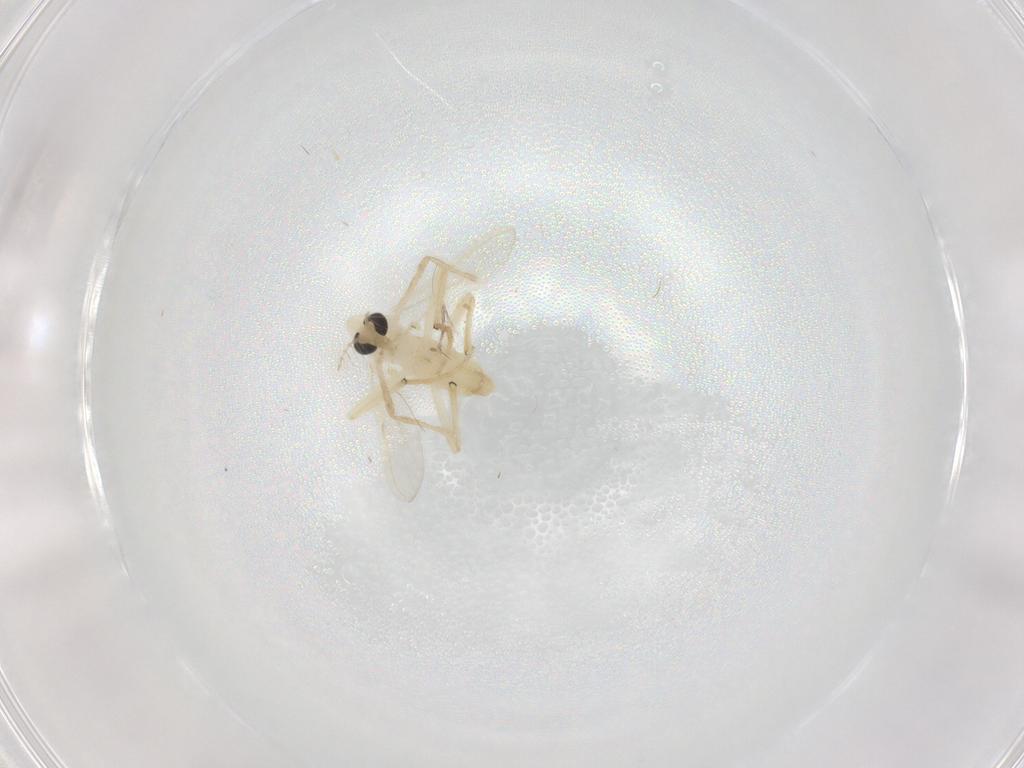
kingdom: Animalia
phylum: Arthropoda
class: Insecta
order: Diptera
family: Chironomidae
